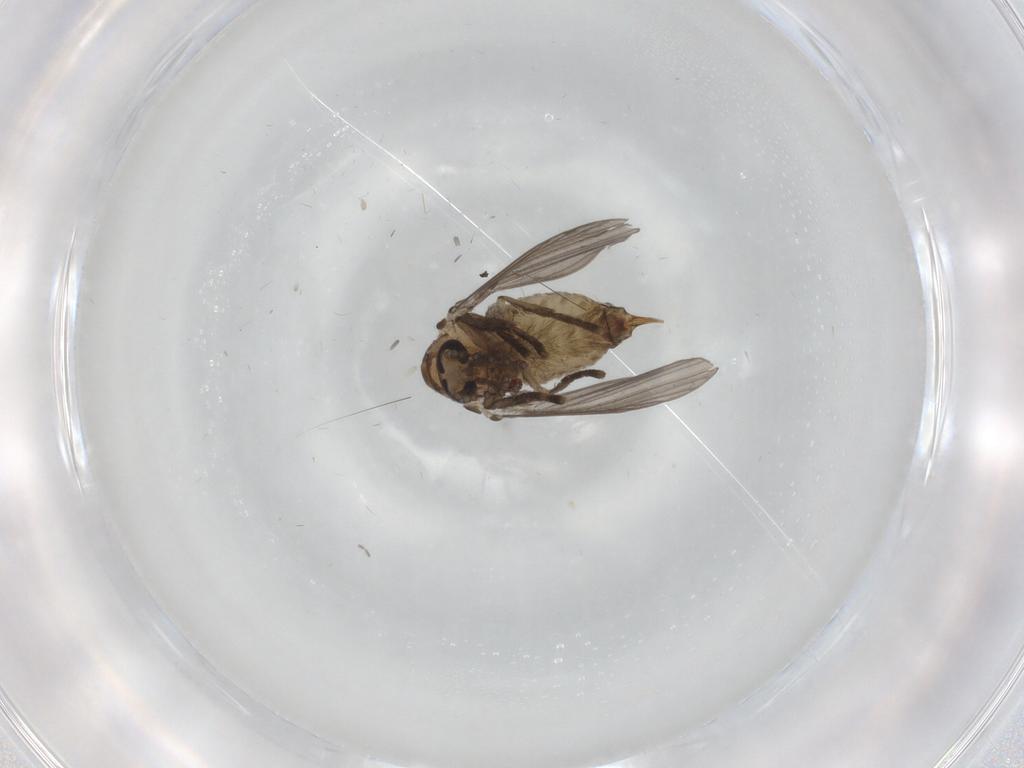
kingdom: Animalia
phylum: Arthropoda
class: Insecta
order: Diptera
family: Psychodidae
